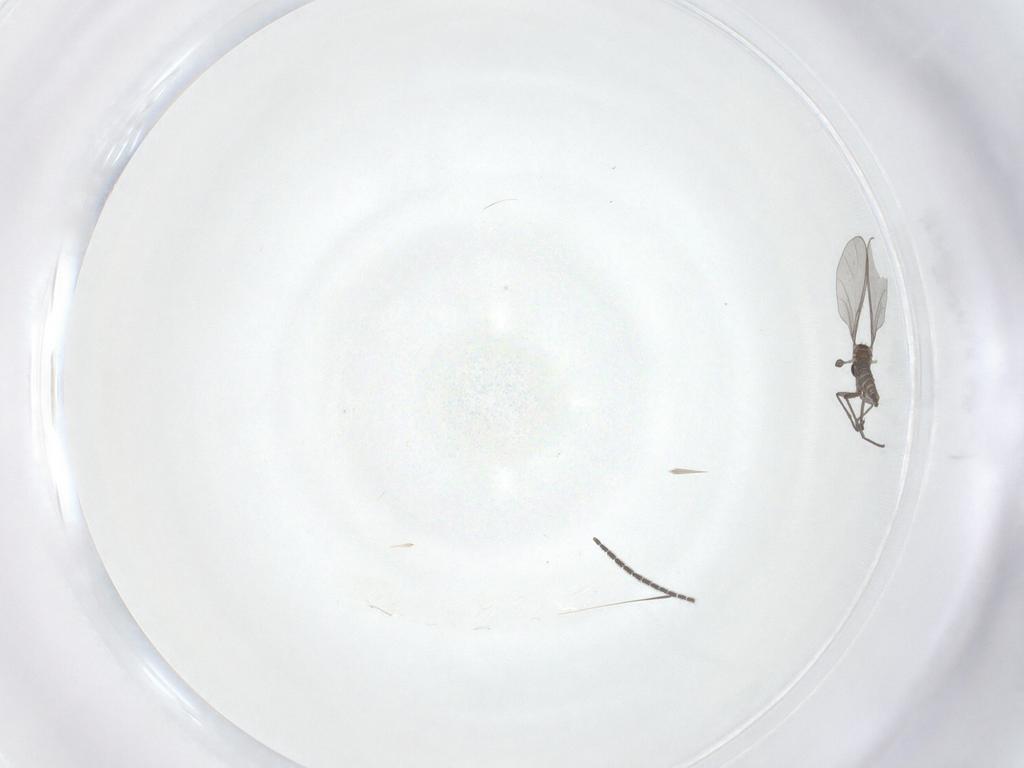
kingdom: Animalia
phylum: Arthropoda
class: Insecta
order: Diptera
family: Sciaridae
